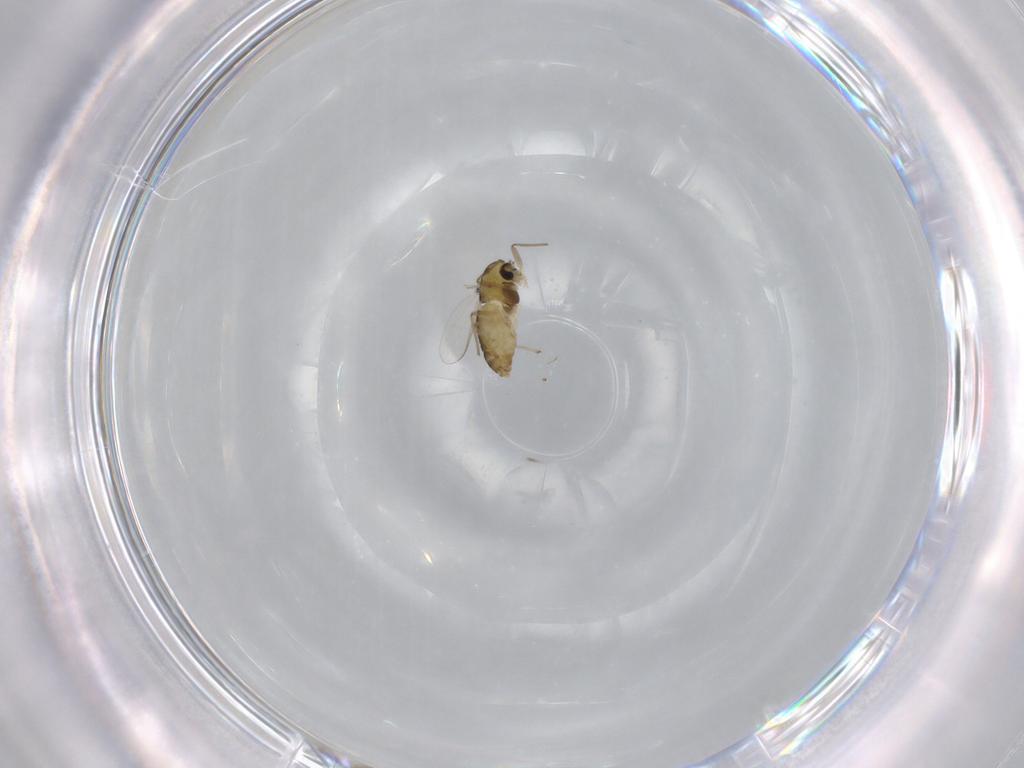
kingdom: Animalia
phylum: Arthropoda
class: Insecta
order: Diptera
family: Chironomidae
